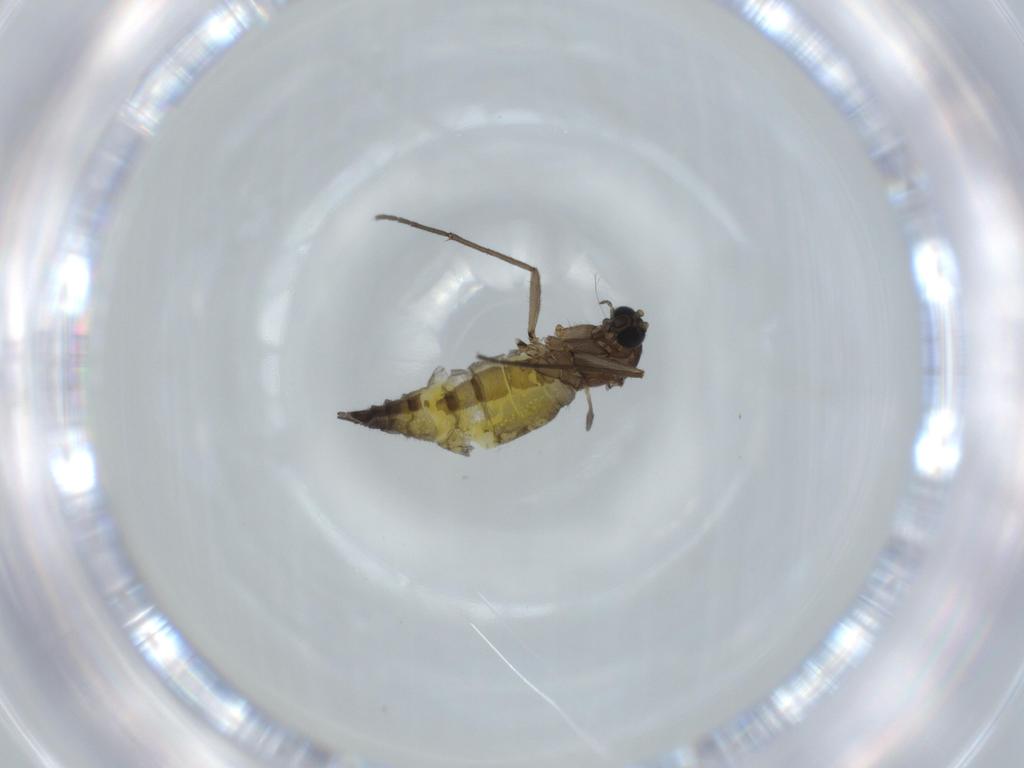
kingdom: Animalia
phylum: Arthropoda
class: Insecta
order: Diptera
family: Sciaridae
